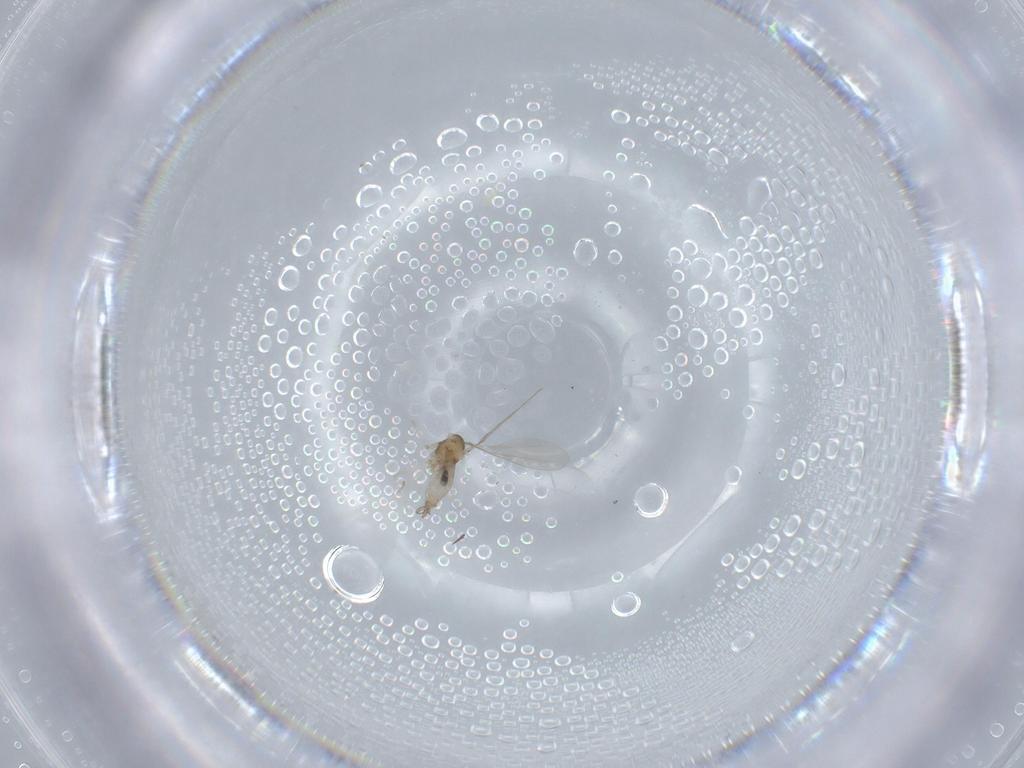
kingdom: Animalia
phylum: Arthropoda
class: Insecta
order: Diptera
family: Cecidomyiidae
